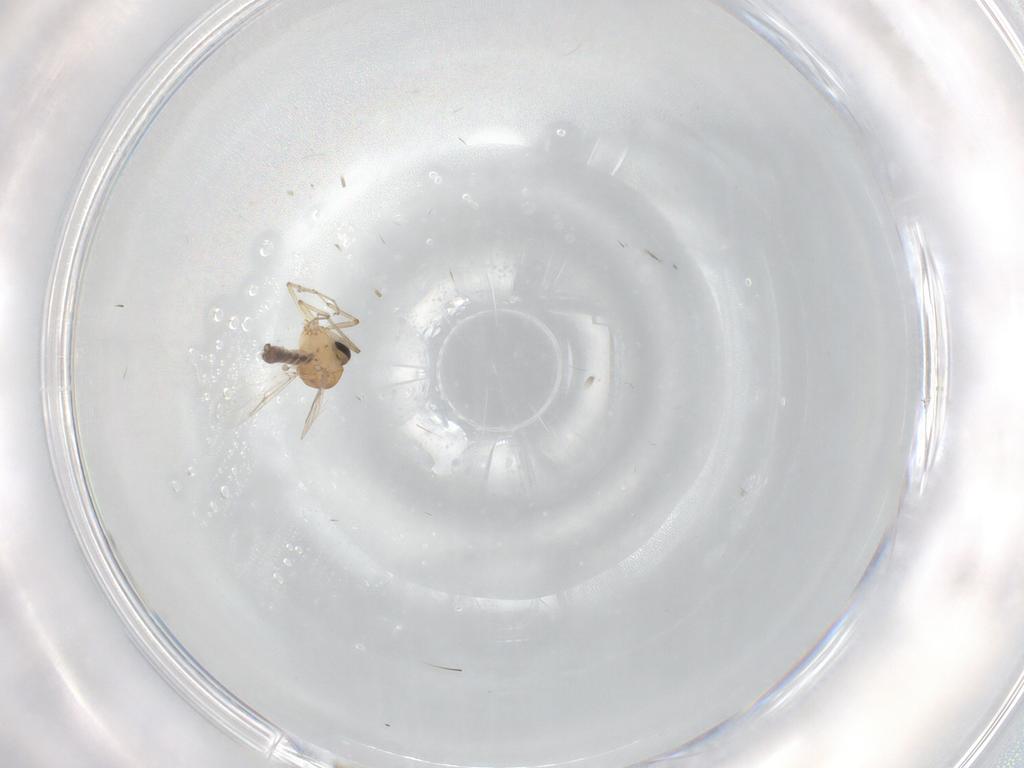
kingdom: Animalia
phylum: Arthropoda
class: Insecta
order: Diptera
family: Ceratopogonidae
